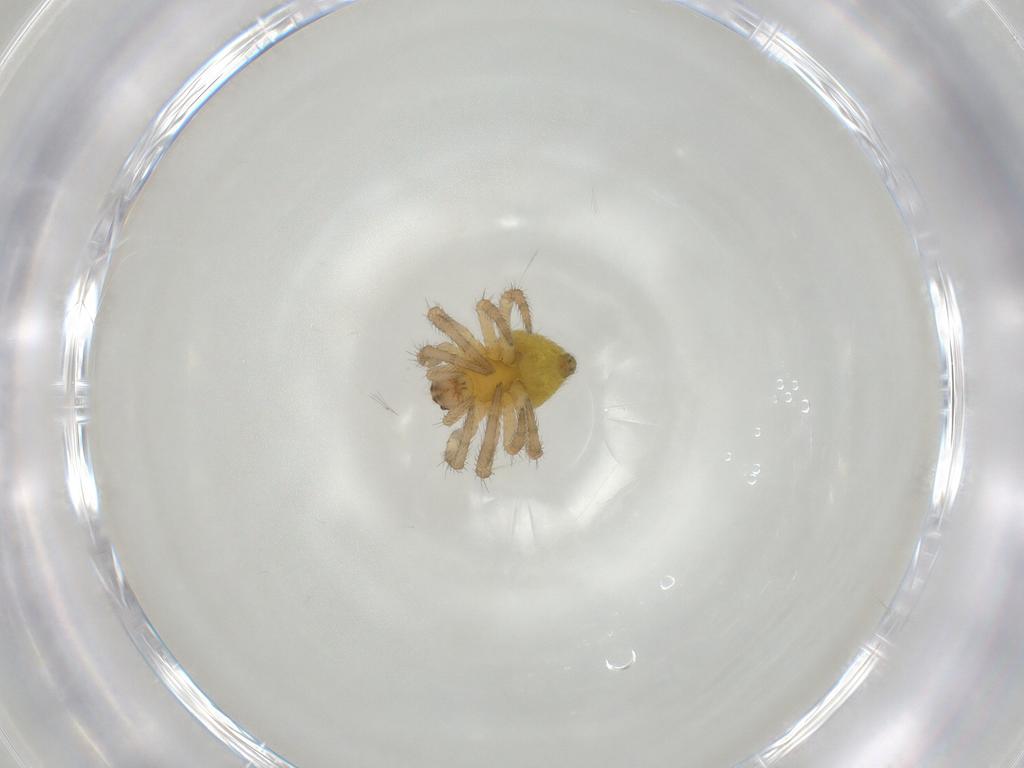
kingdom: Animalia
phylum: Arthropoda
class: Arachnida
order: Araneae
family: Araneidae
